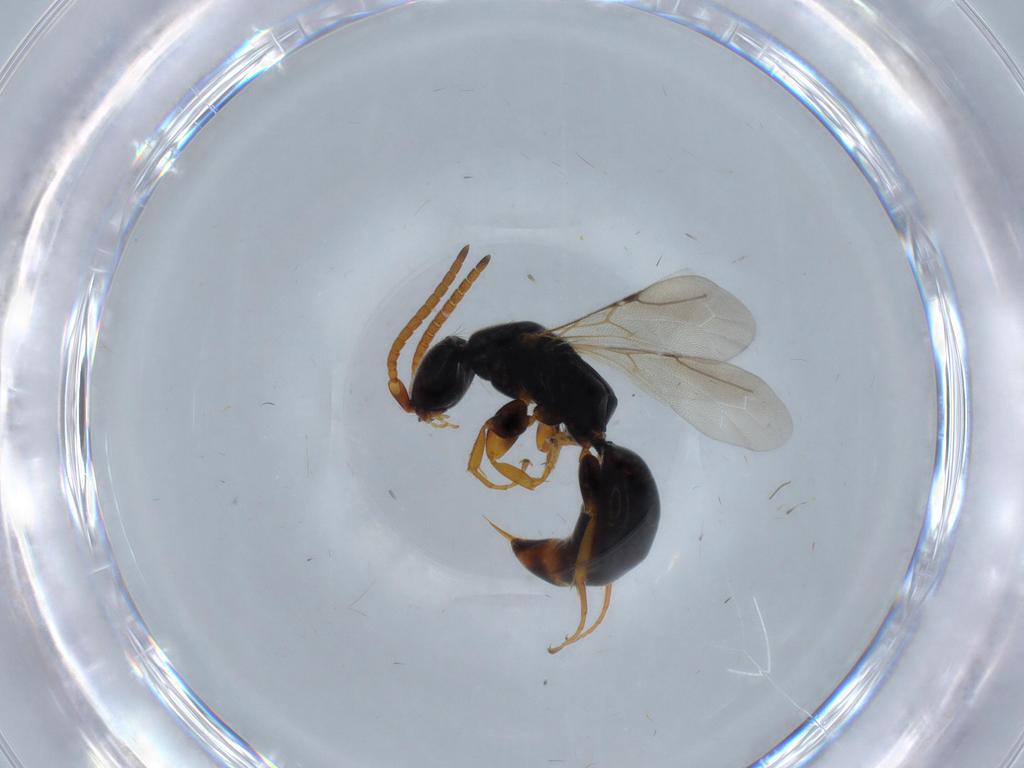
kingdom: Animalia
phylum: Arthropoda
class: Insecta
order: Hymenoptera
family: Bethylidae
